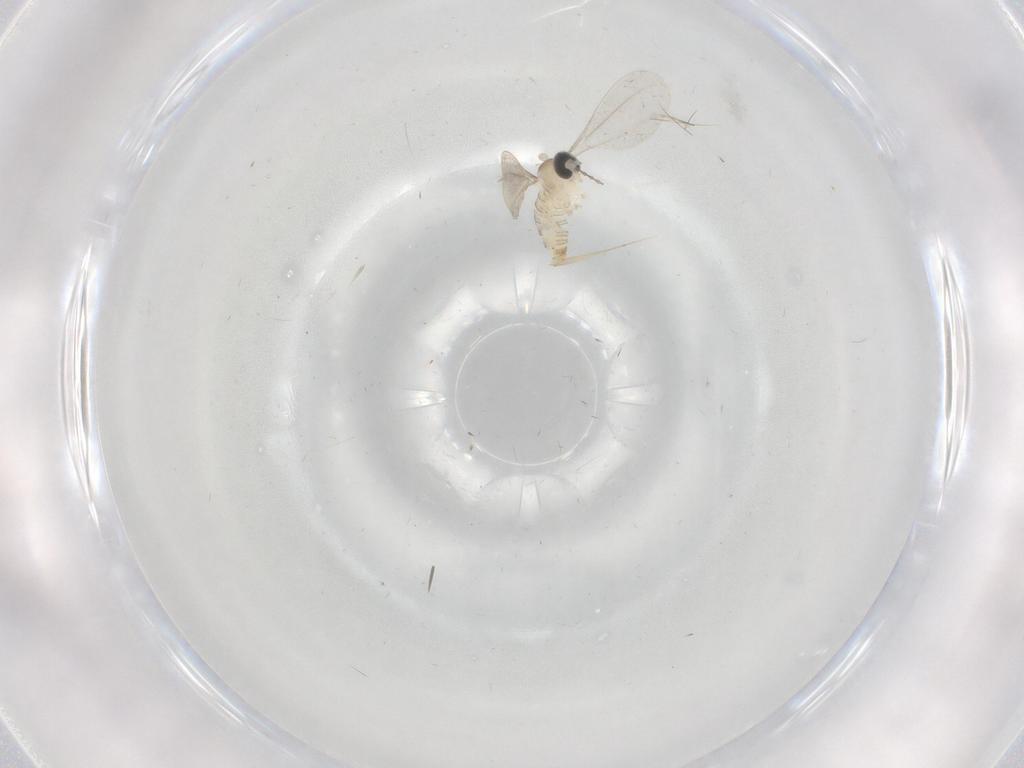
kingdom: Animalia
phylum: Arthropoda
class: Insecta
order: Diptera
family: Cecidomyiidae
